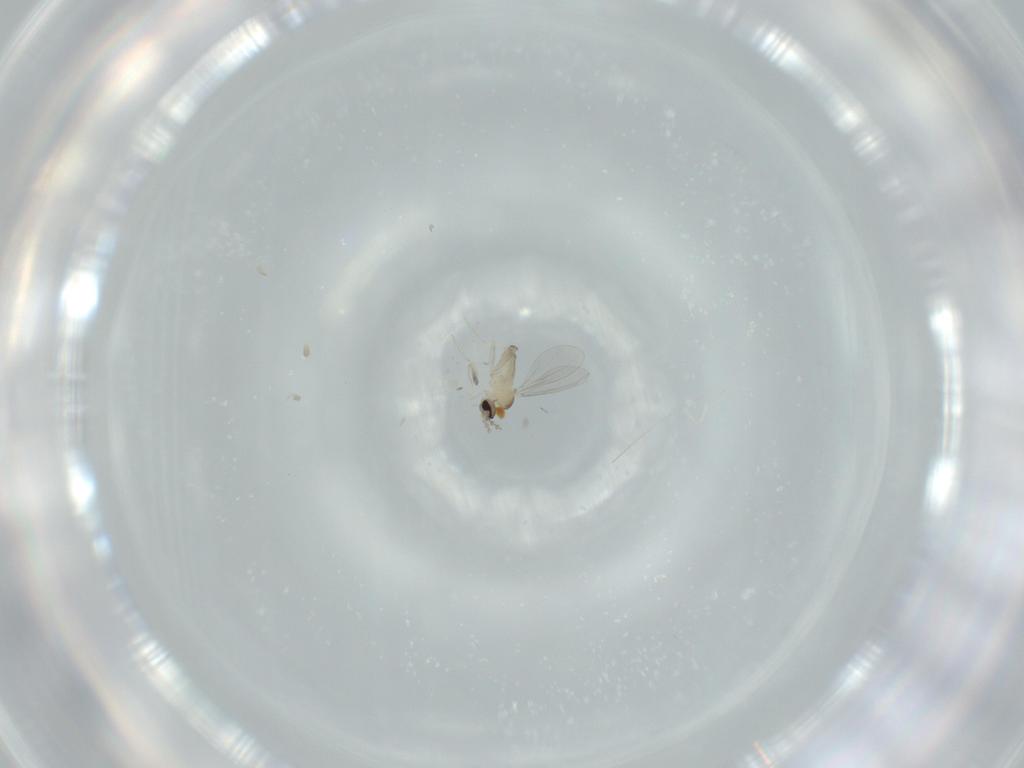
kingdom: Animalia
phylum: Arthropoda
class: Insecta
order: Diptera
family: Cecidomyiidae
